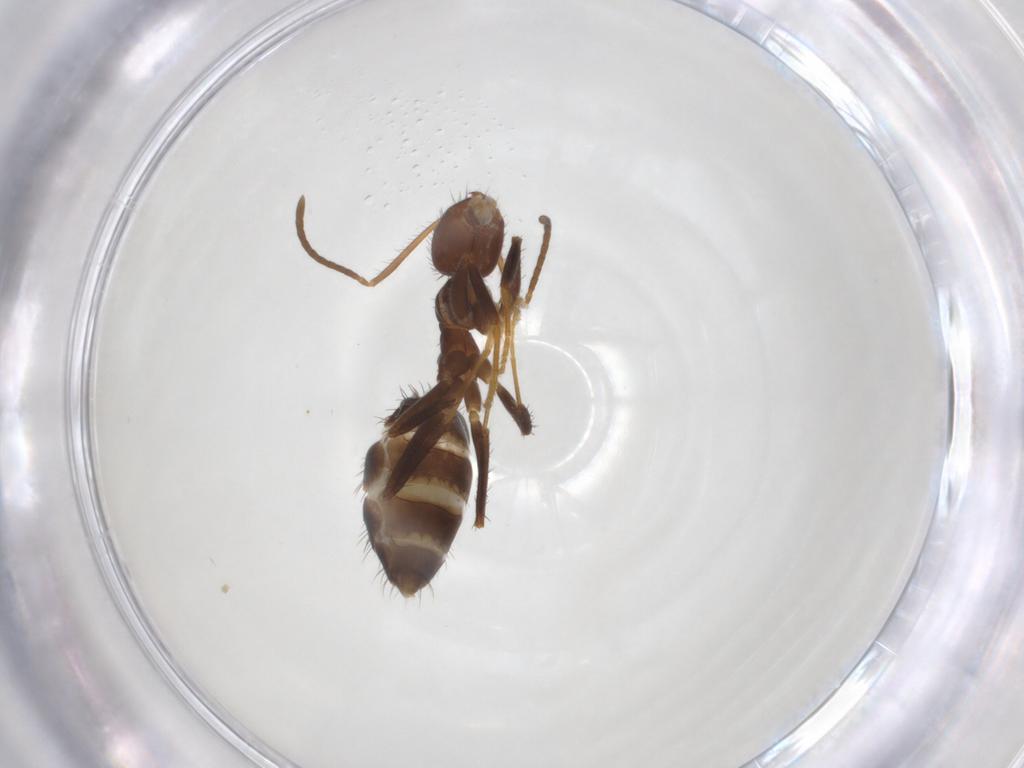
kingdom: Animalia
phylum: Arthropoda
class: Insecta
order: Hymenoptera
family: Formicidae
